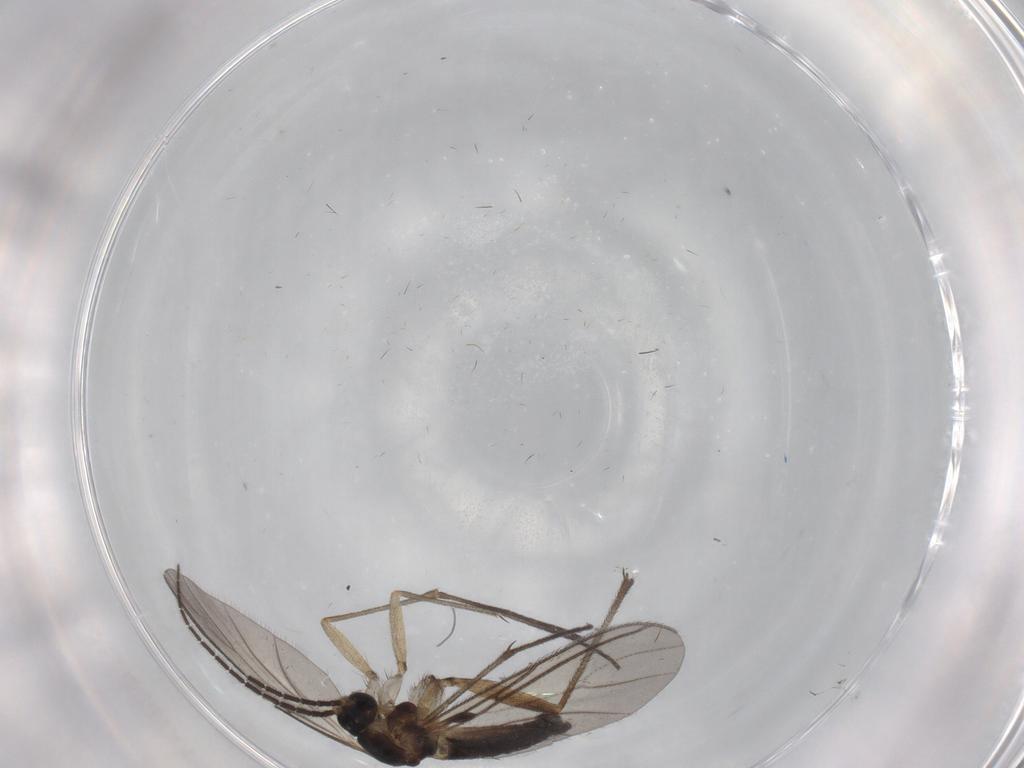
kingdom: Animalia
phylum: Arthropoda
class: Insecta
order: Diptera
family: Sciaridae
